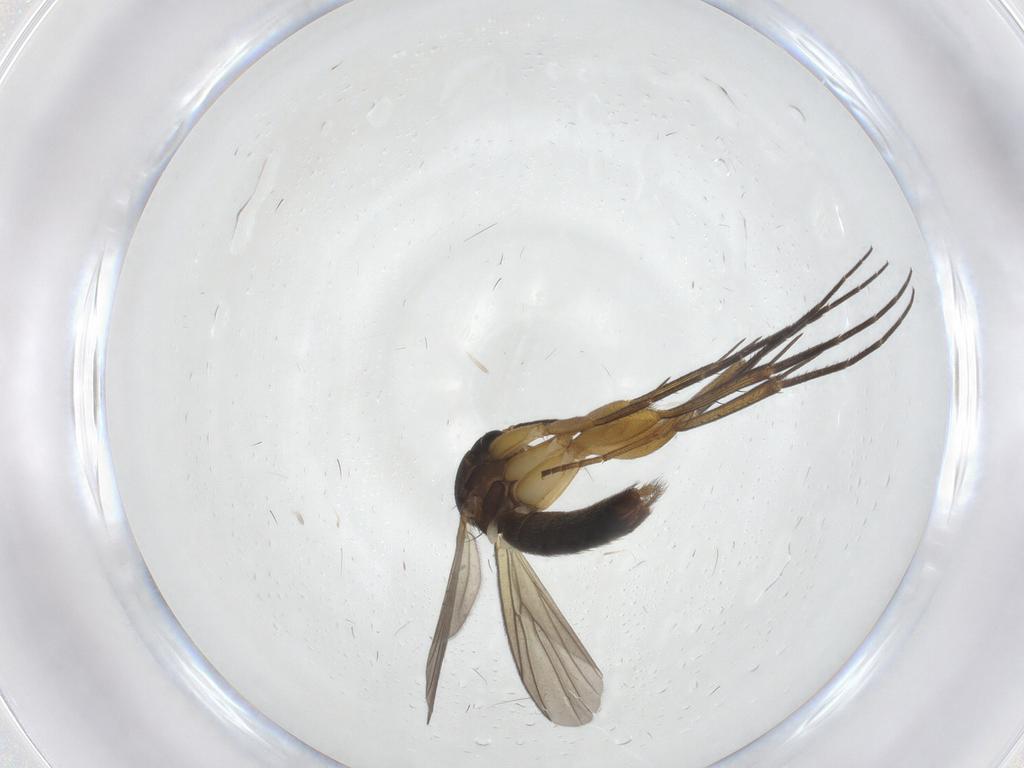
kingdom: Animalia
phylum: Arthropoda
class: Insecta
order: Diptera
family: Mycetophilidae
